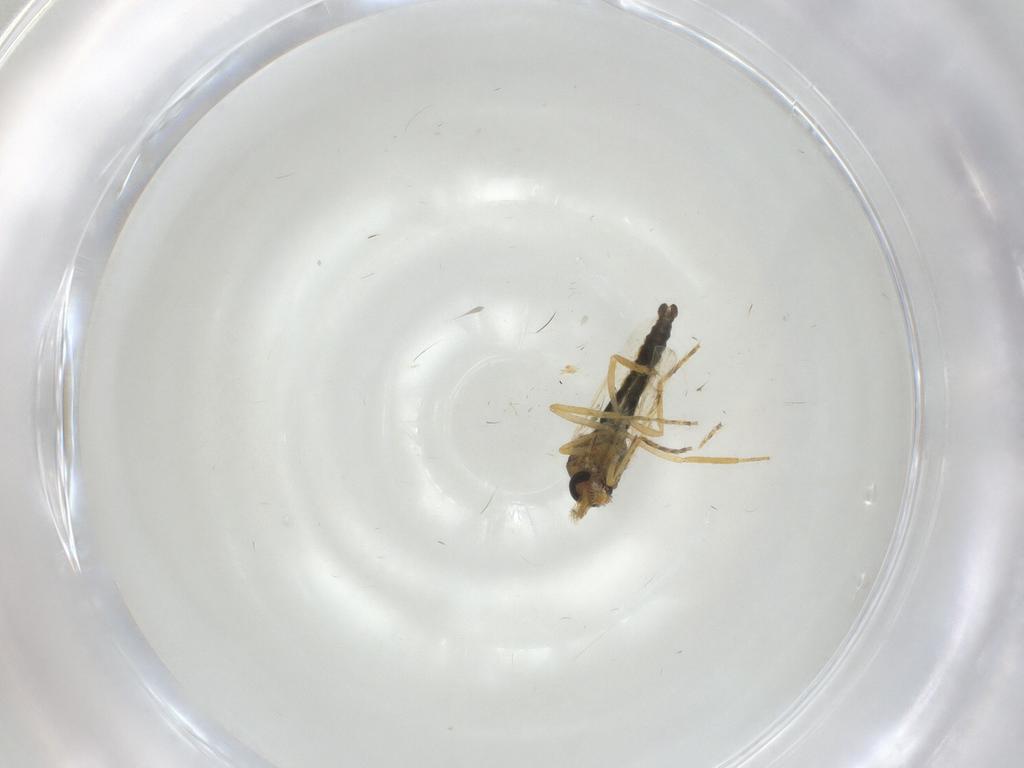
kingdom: Animalia
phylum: Arthropoda
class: Insecta
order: Diptera
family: Ceratopogonidae
